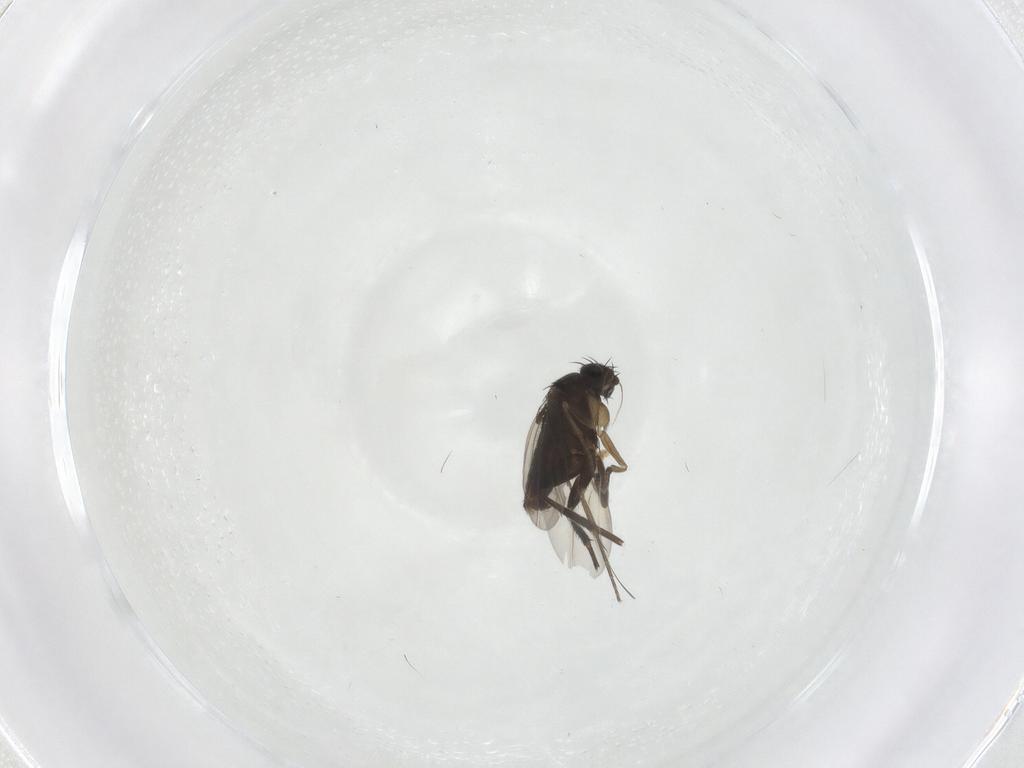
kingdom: Animalia
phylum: Arthropoda
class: Insecta
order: Diptera
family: Phoridae
